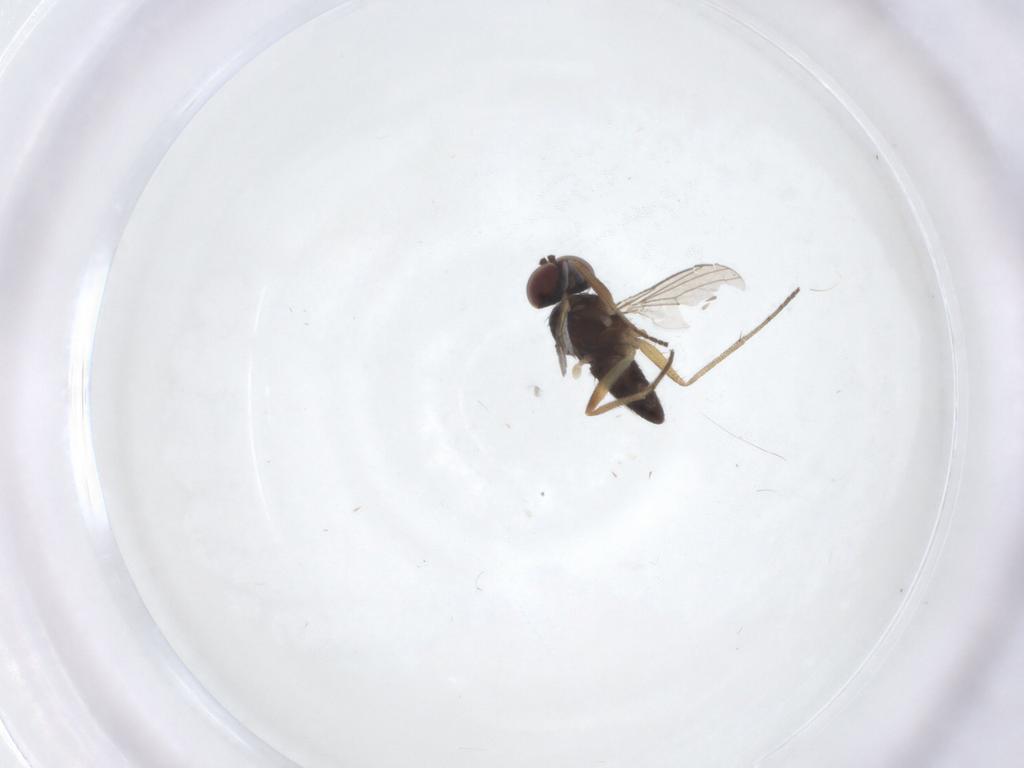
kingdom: Animalia
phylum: Arthropoda
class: Insecta
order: Diptera
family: Dolichopodidae
